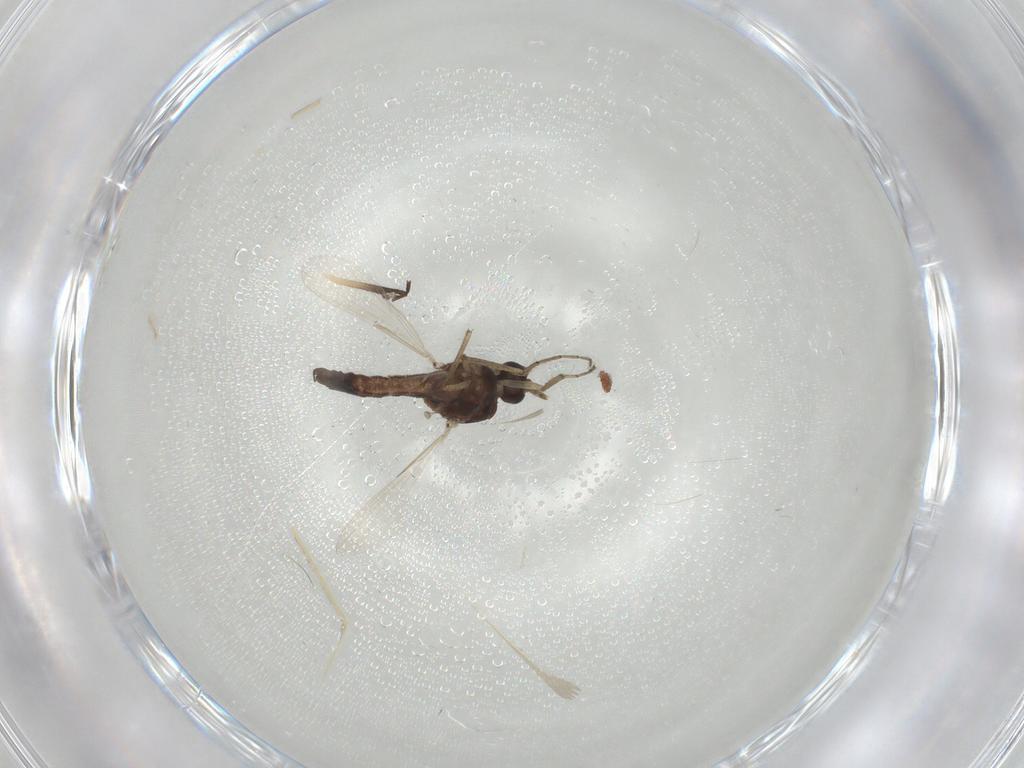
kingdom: Animalia
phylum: Arthropoda
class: Insecta
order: Diptera
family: Ceratopogonidae
